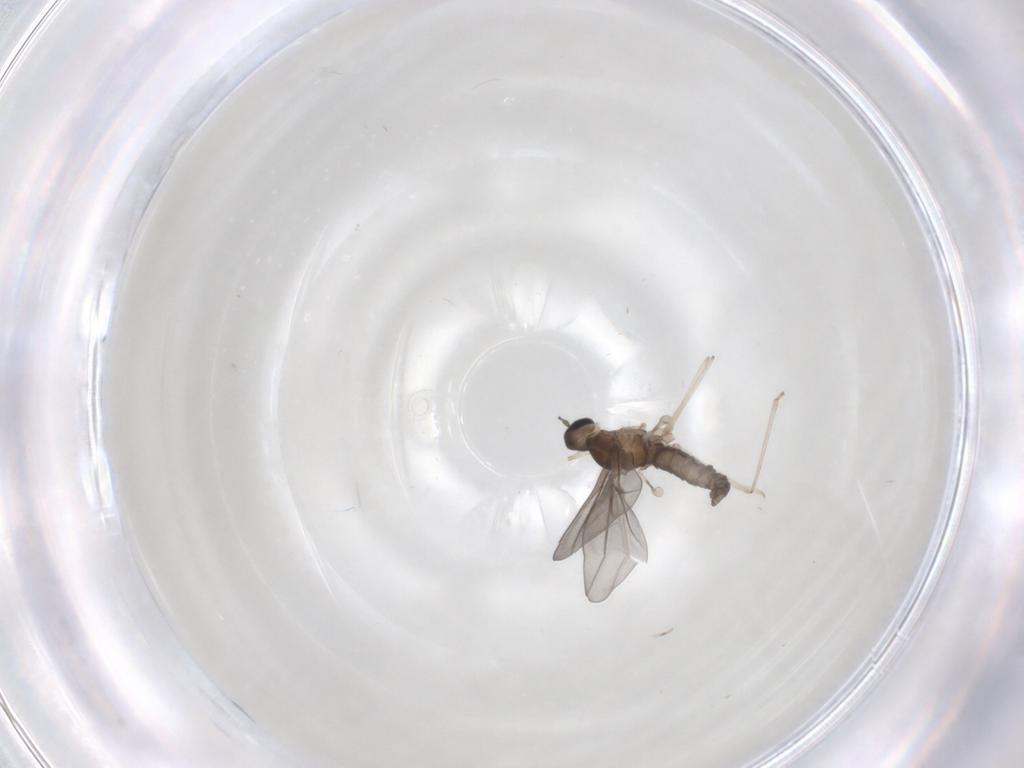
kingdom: Animalia
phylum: Arthropoda
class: Insecta
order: Diptera
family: Cecidomyiidae
